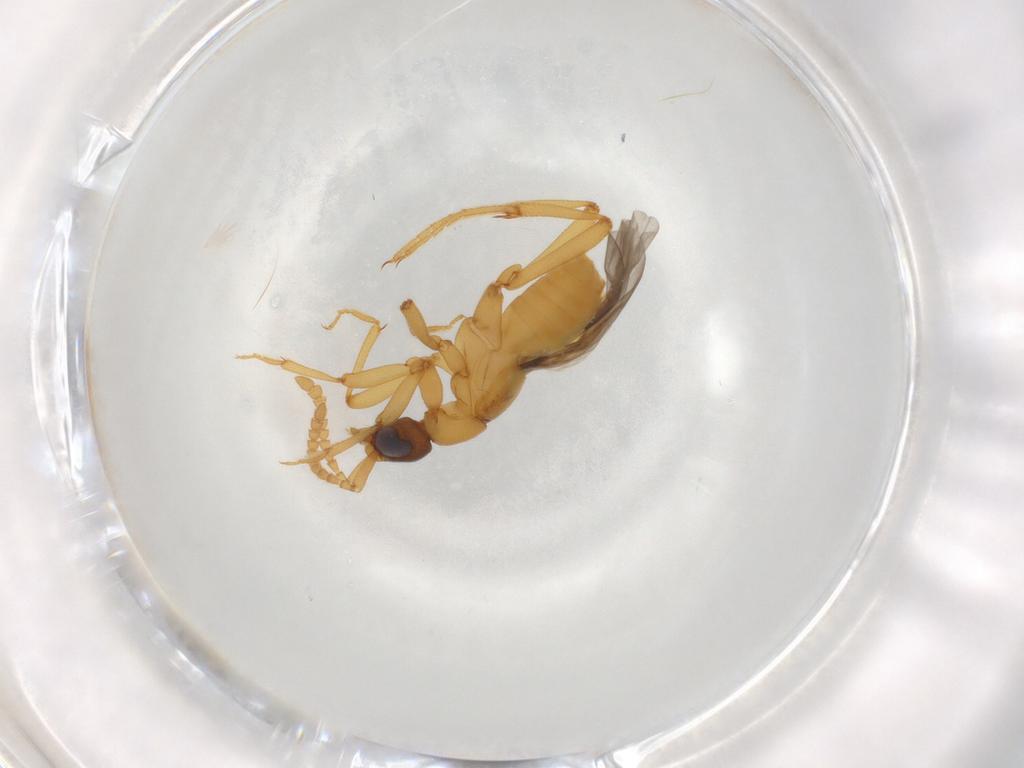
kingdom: Animalia
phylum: Arthropoda
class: Insecta
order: Coleoptera
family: Staphylinidae
